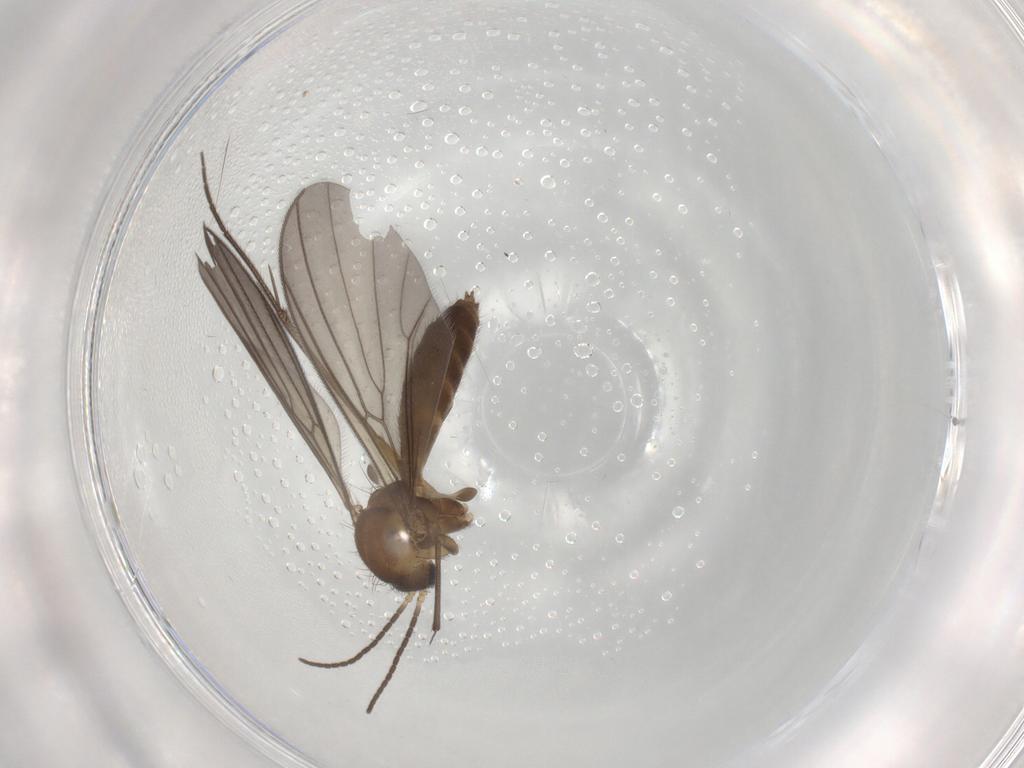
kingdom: Animalia
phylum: Arthropoda
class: Insecta
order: Diptera
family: Mycetophilidae
